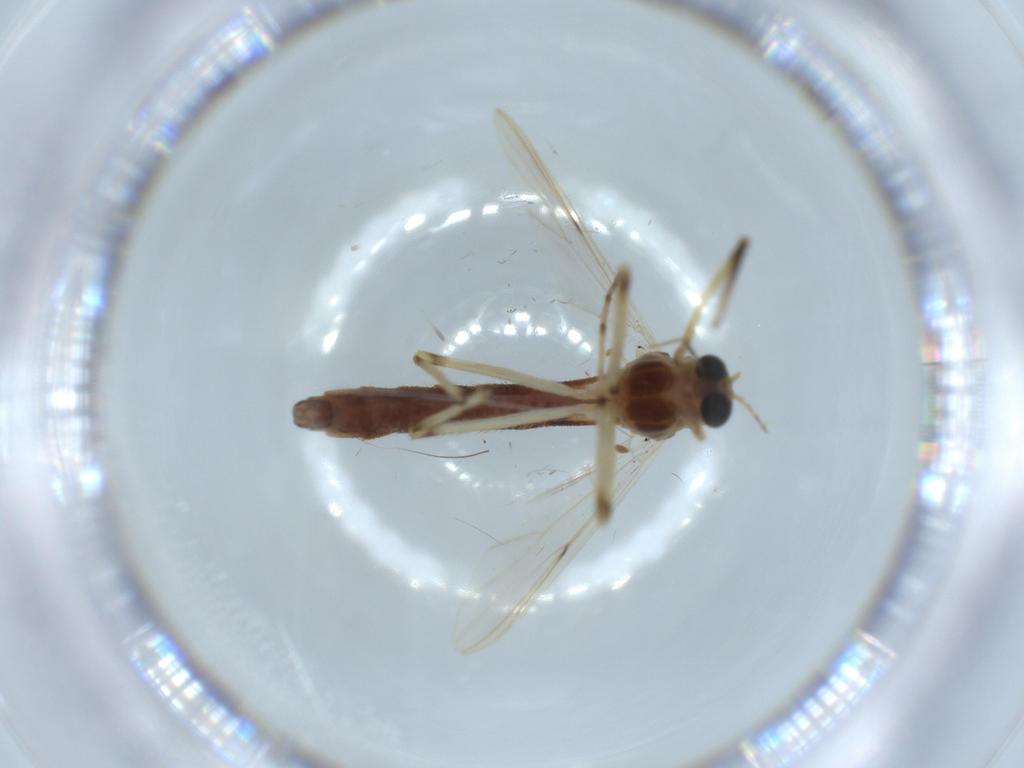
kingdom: Animalia
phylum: Arthropoda
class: Insecta
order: Diptera
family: Chironomidae
